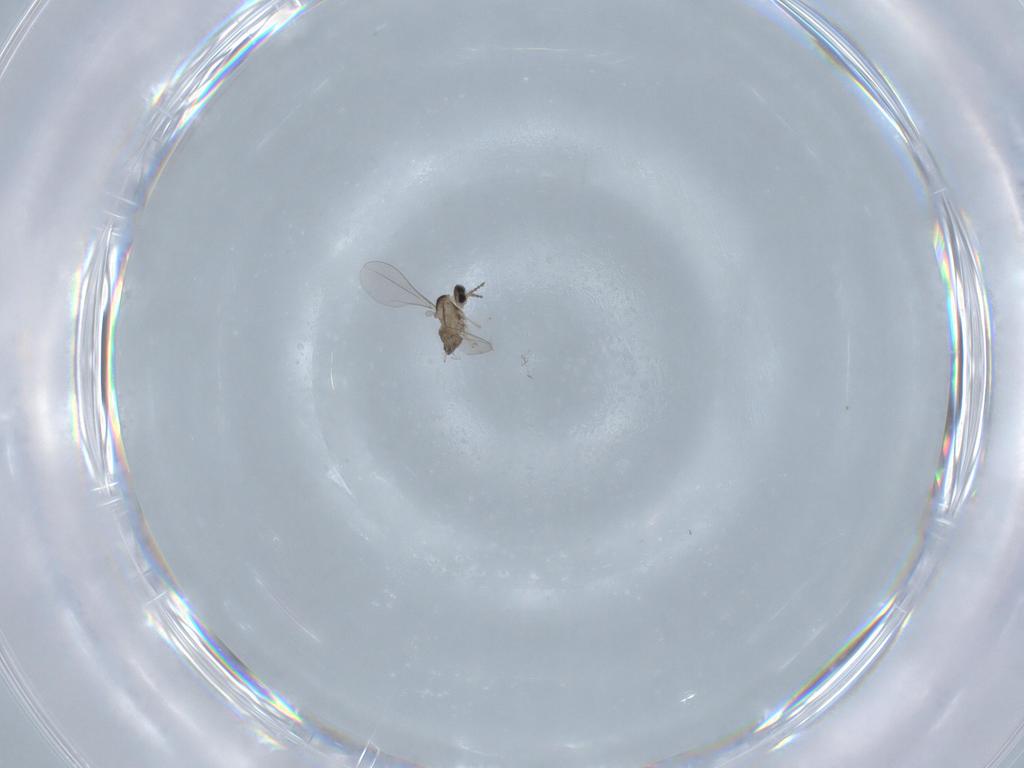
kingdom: Animalia
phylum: Arthropoda
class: Insecta
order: Diptera
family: Cecidomyiidae
